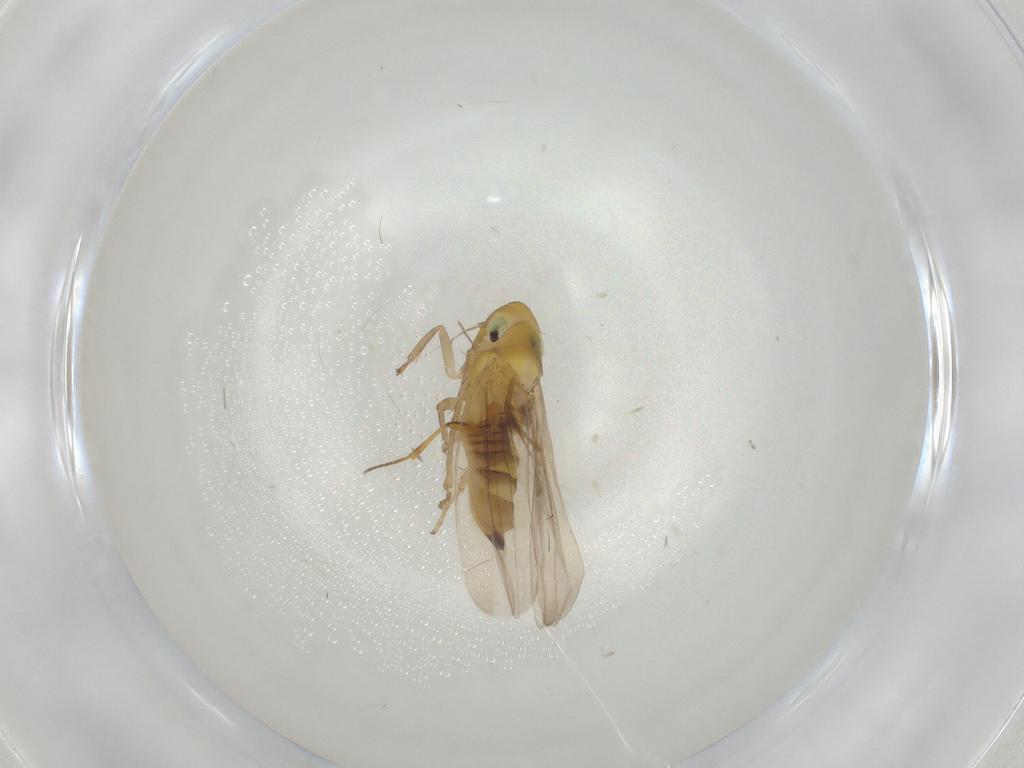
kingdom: Animalia
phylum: Arthropoda
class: Insecta
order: Hemiptera
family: Cicadellidae
